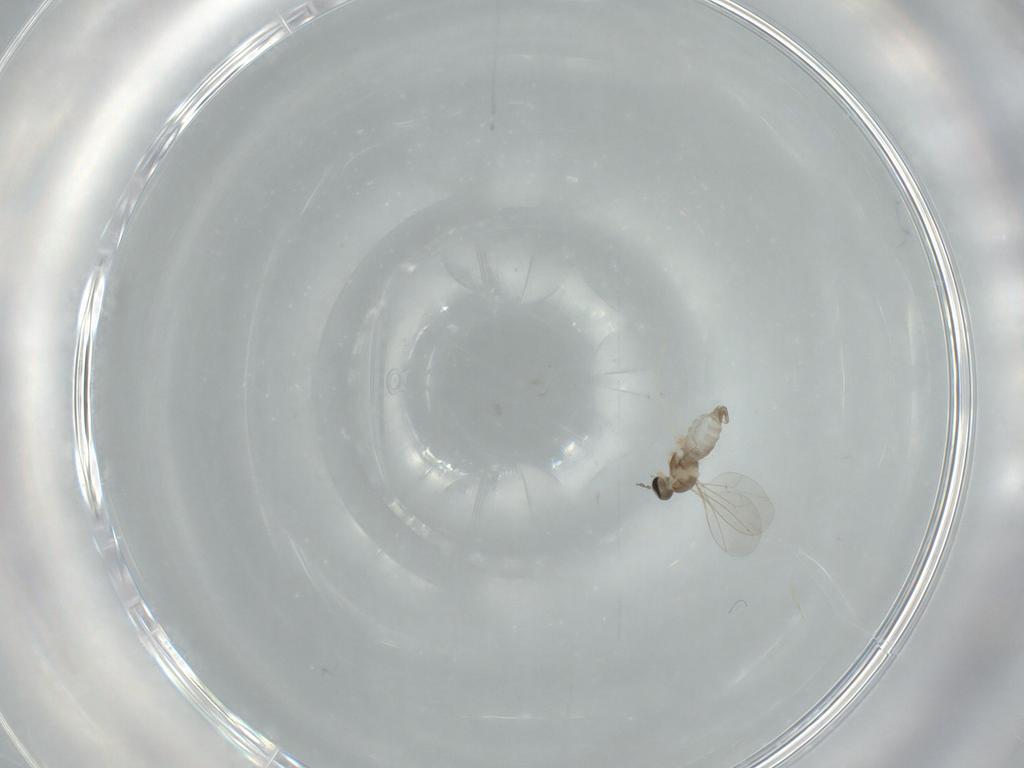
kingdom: Animalia
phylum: Arthropoda
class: Insecta
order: Diptera
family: Cecidomyiidae
